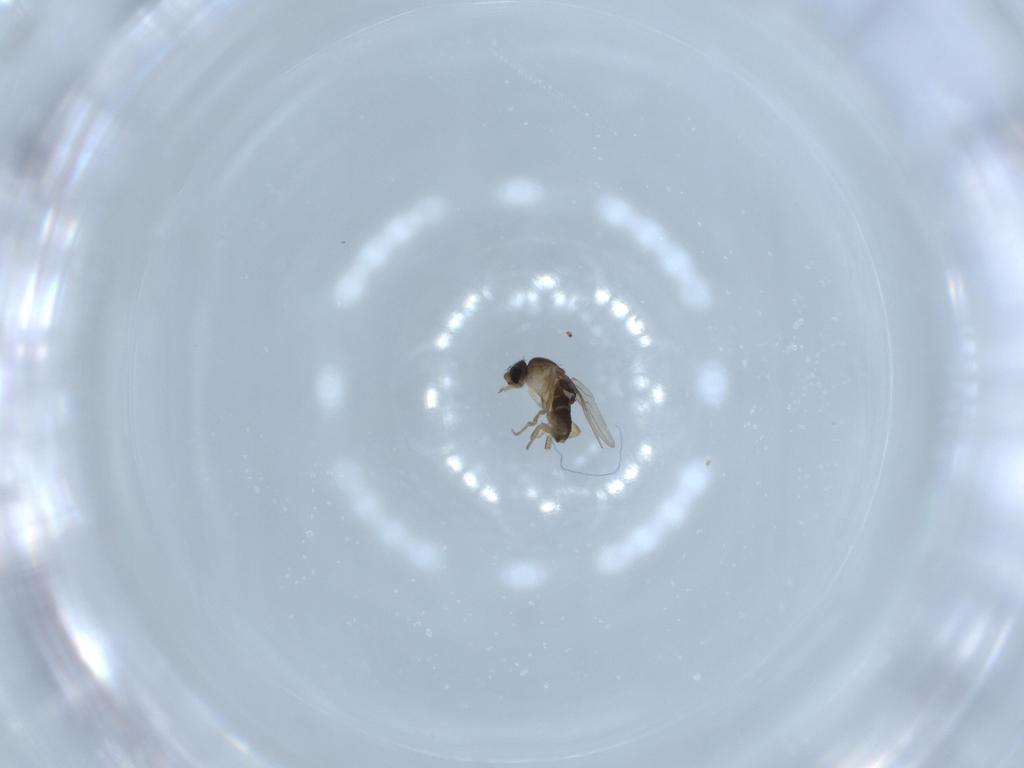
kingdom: Animalia
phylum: Arthropoda
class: Insecta
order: Diptera
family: Phoridae
